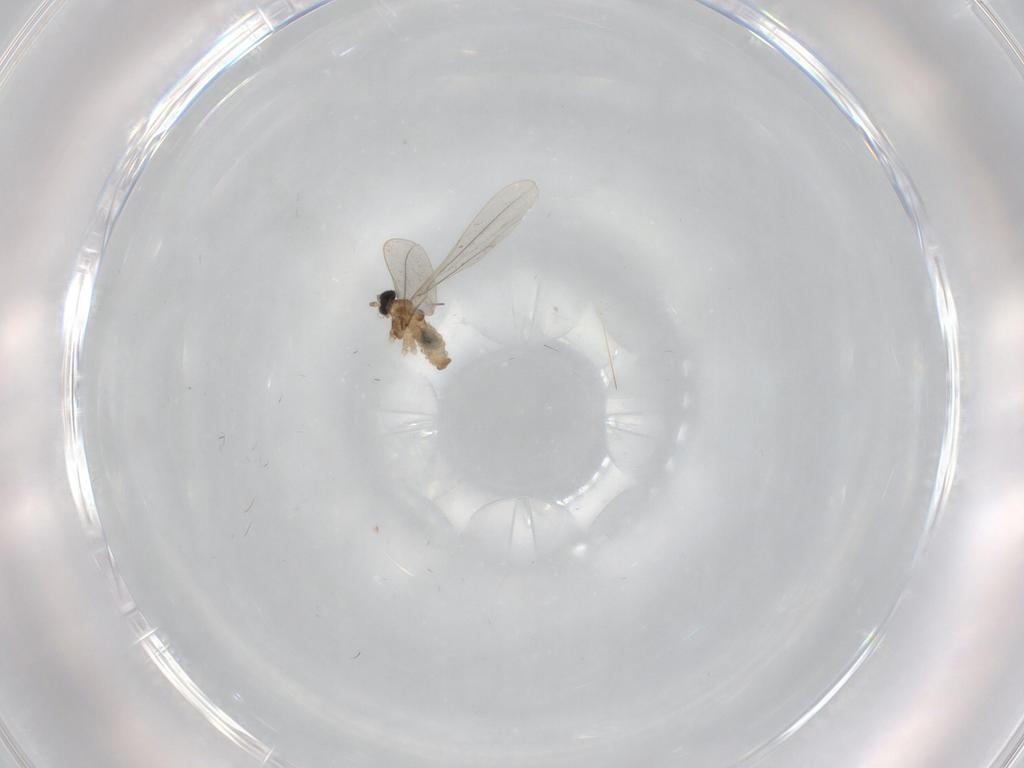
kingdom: Animalia
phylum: Arthropoda
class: Insecta
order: Diptera
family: Cecidomyiidae
